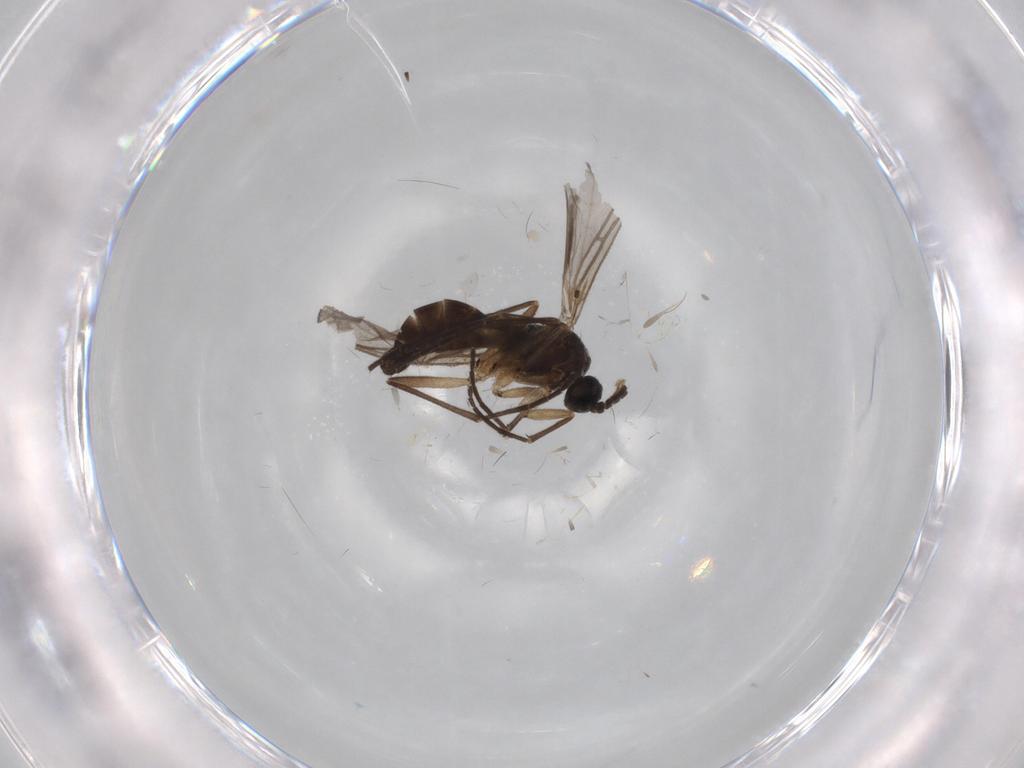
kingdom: Animalia
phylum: Arthropoda
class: Insecta
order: Diptera
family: Sciaridae
